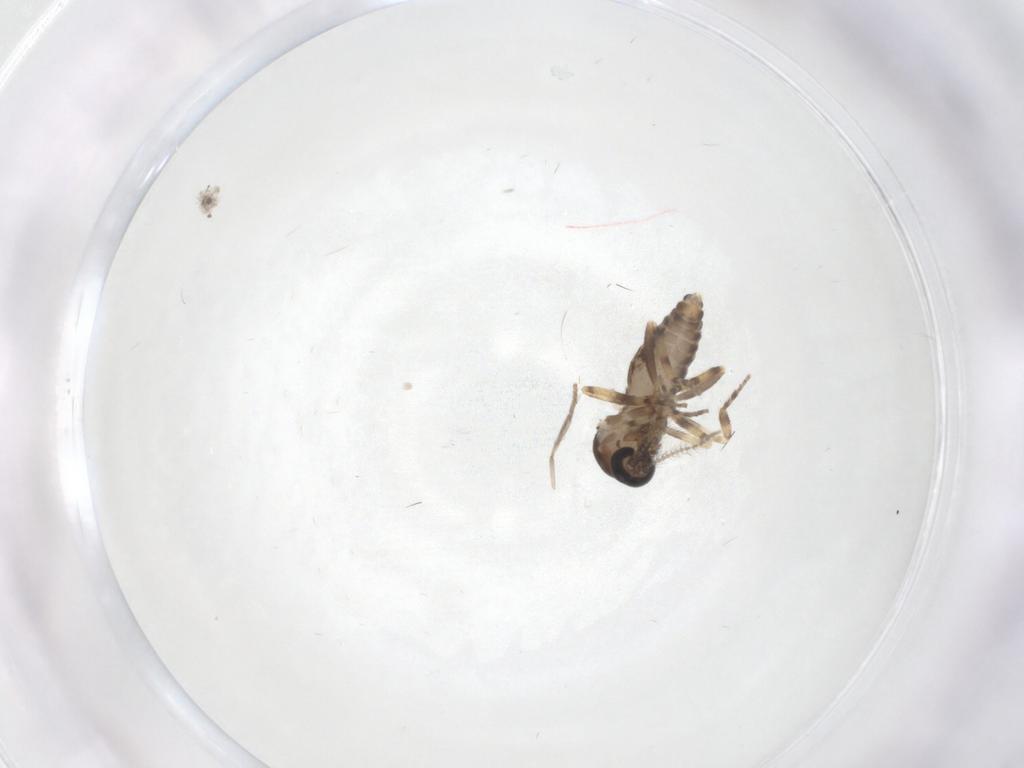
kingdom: Animalia
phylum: Arthropoda
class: Insecta
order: Diptera
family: Ceratopogonidae
